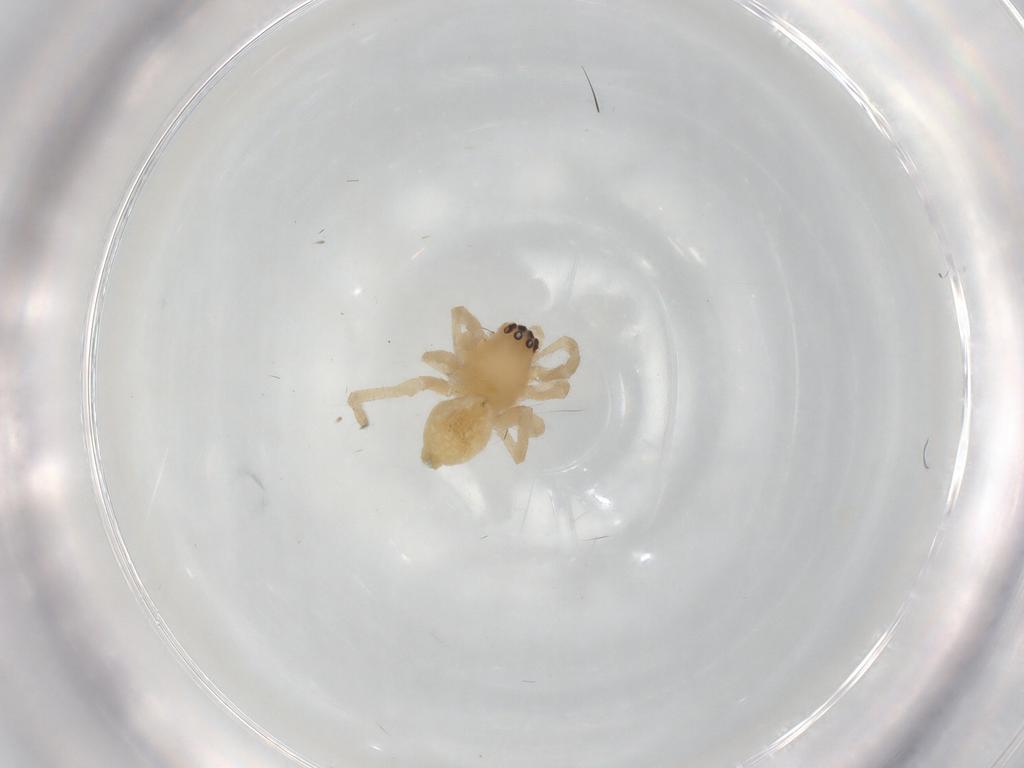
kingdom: Animalia
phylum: Arthropoda
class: Arachnida
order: Araneae
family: Cheiracanthiidae
